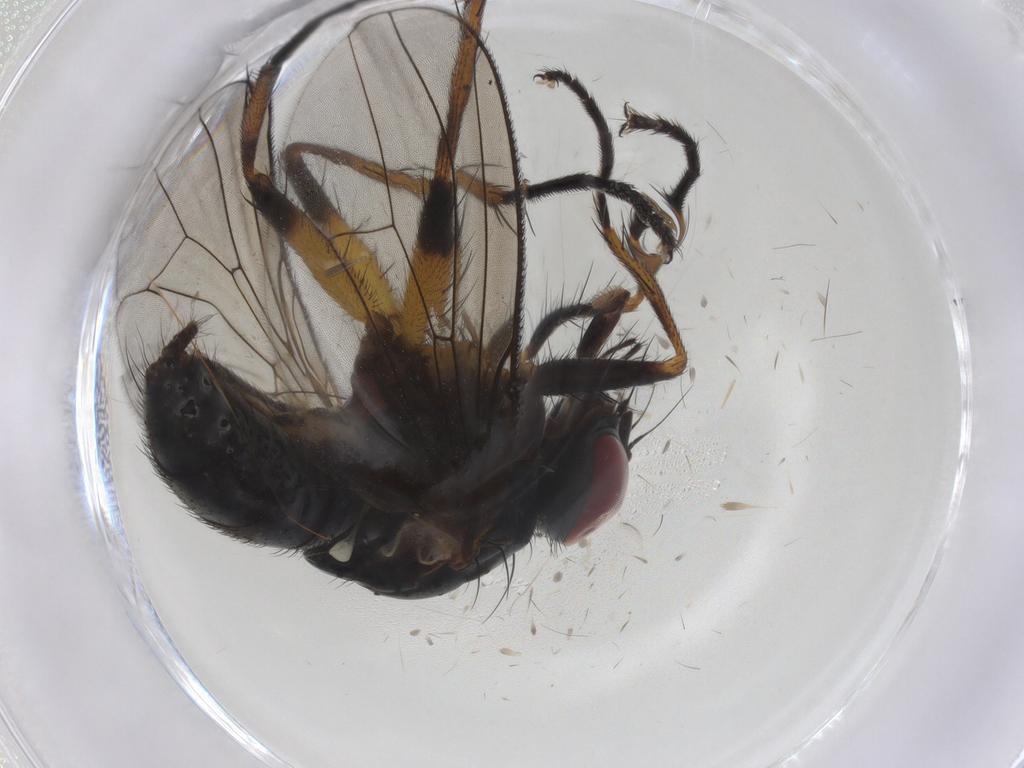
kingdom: Animalia
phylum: Arthropoda
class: Insecta
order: Diptera
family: Muscidae
